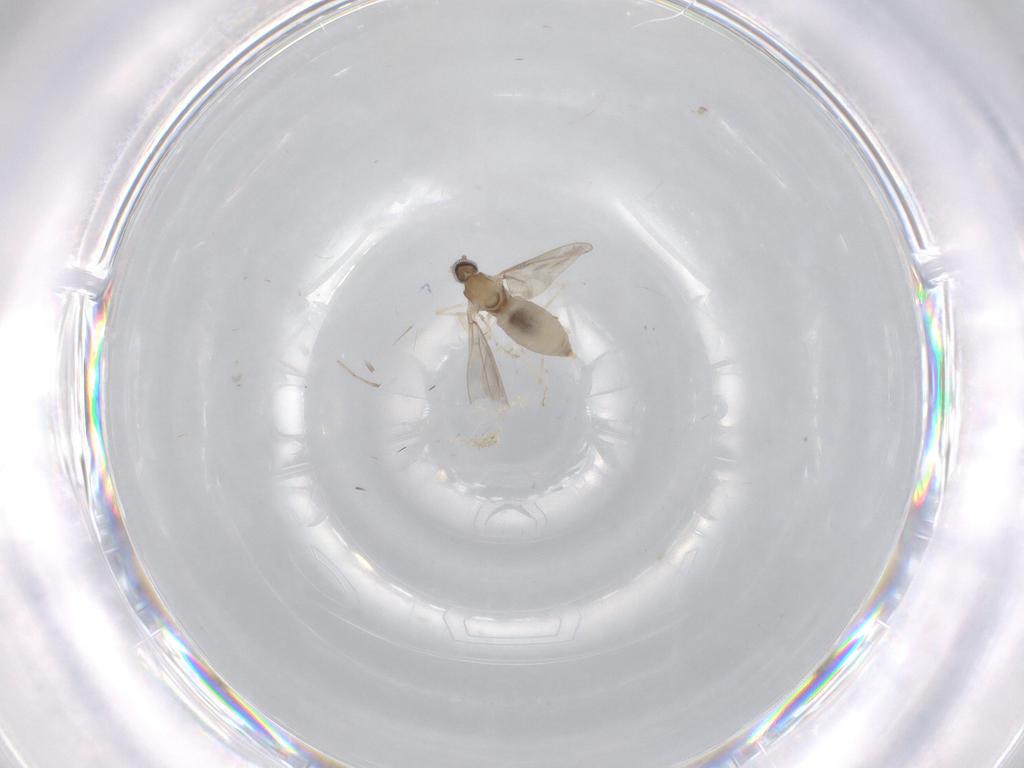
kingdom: Animalia
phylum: Arthropoda
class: Insecta
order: Diptera
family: Cecidomyiidae
